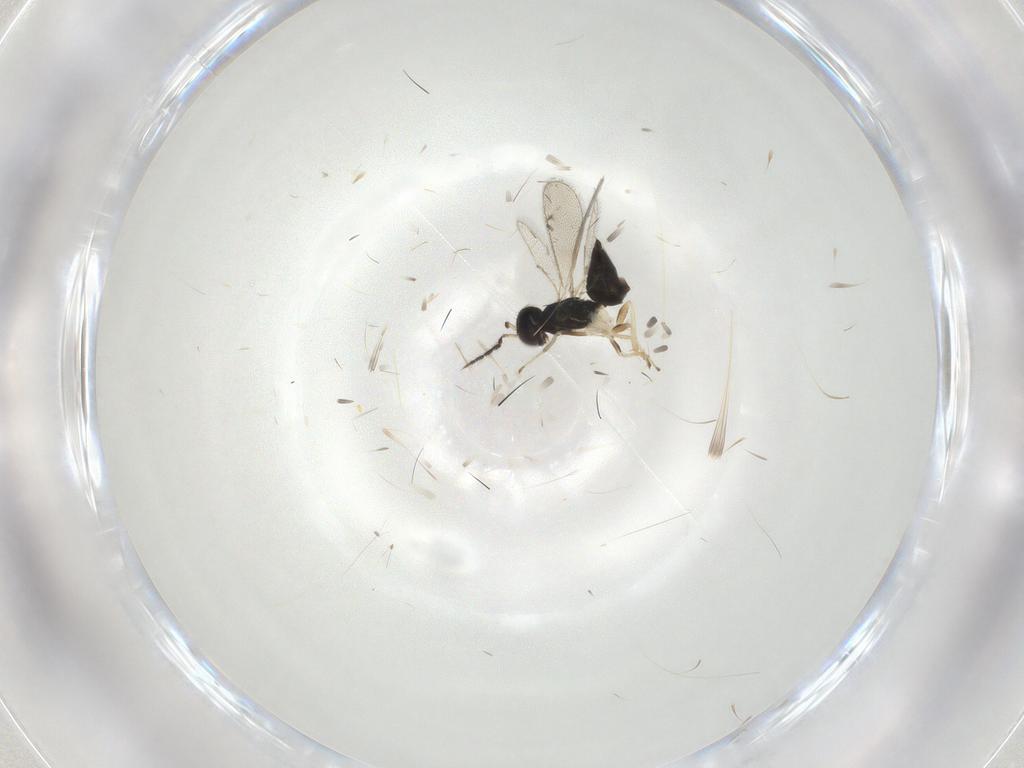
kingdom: Animalia
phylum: Arthropoda
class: Insecta
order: Hymenoptera
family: Eulophidae
